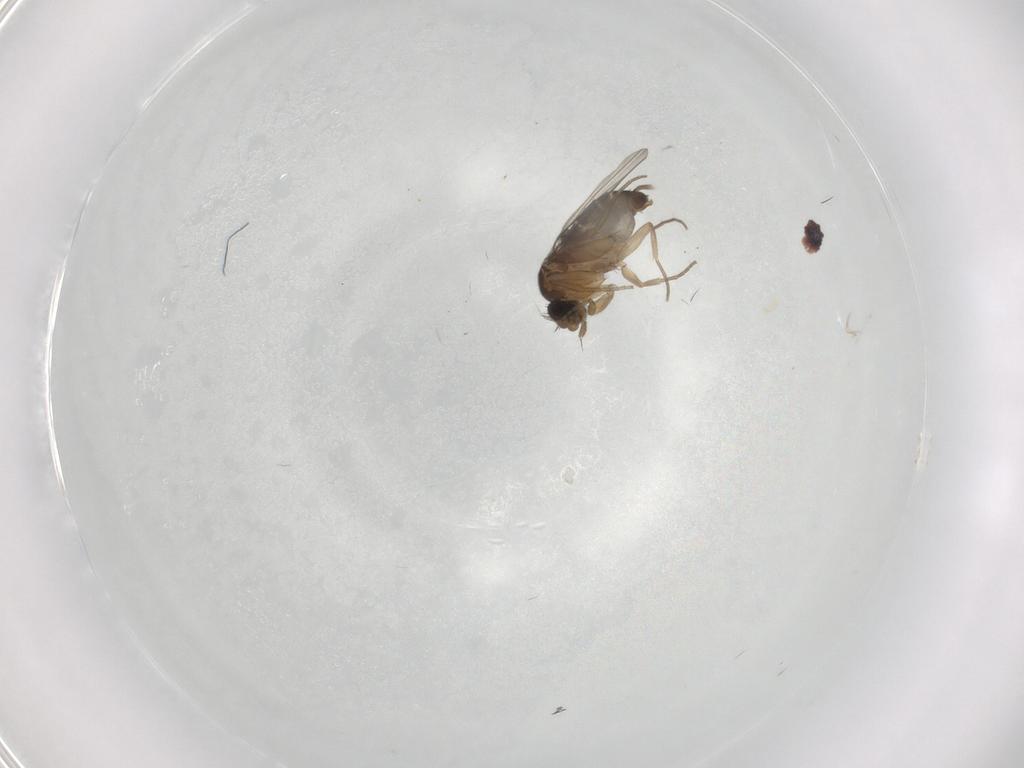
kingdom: Animalia
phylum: Arthropoda
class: Insecta
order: Diptera
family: Phoridae
